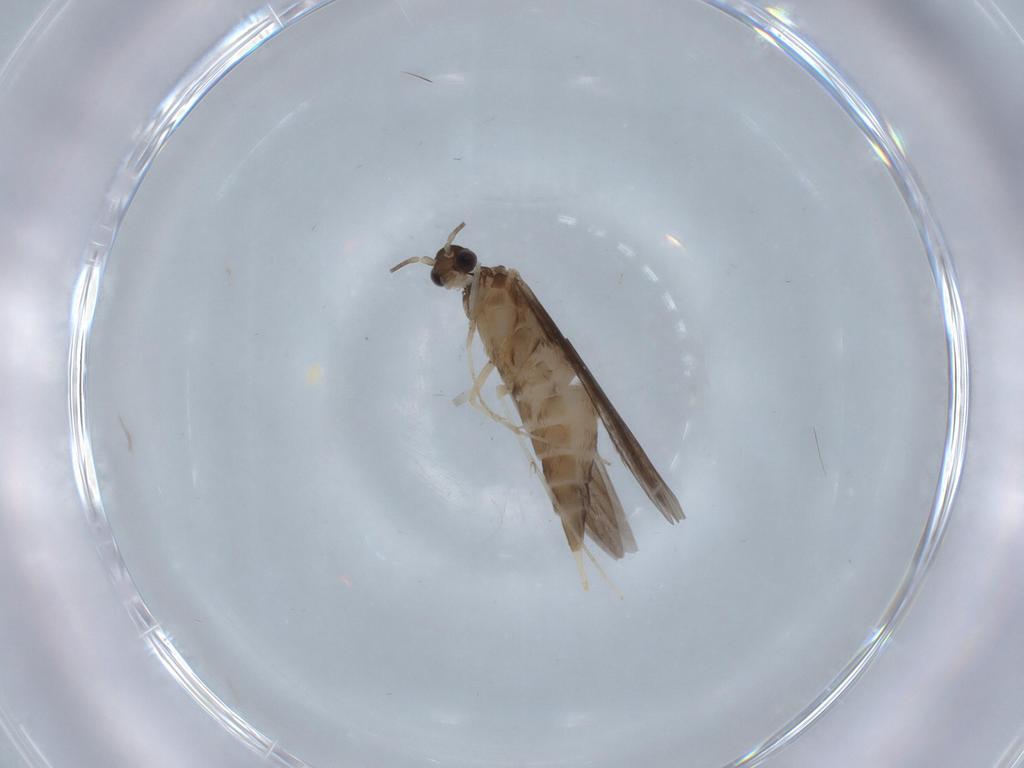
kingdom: Animalia
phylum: Arthropoda
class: Insecta
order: Trichoptera
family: Xiphocentronidae
